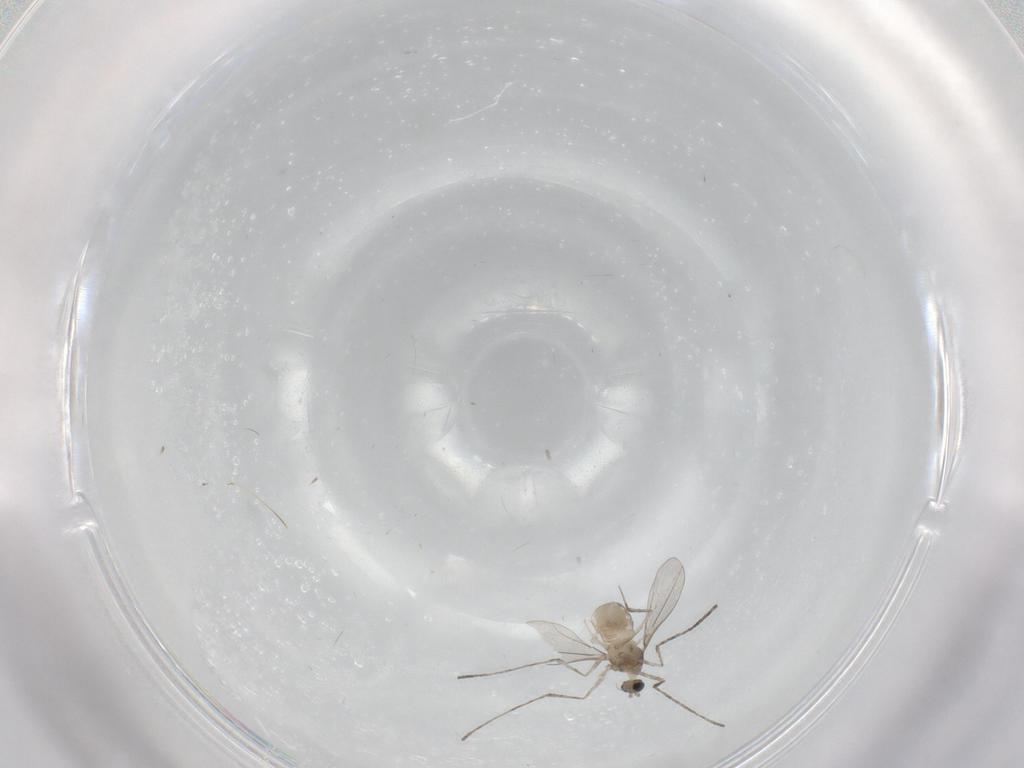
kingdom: Animalia
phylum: Arthropoda
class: Insecta
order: Diptera
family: Cecidomyiidae
